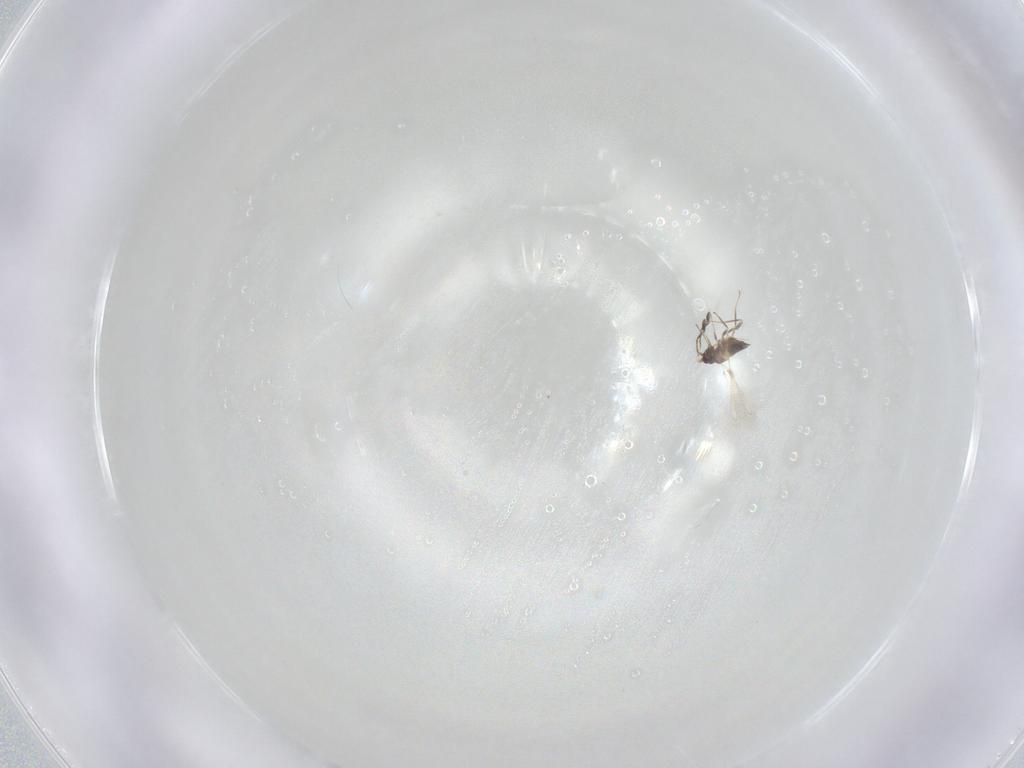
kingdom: Animalia
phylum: Arthropoda
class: Insecta
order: Hymenoptera
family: Mymaridae
